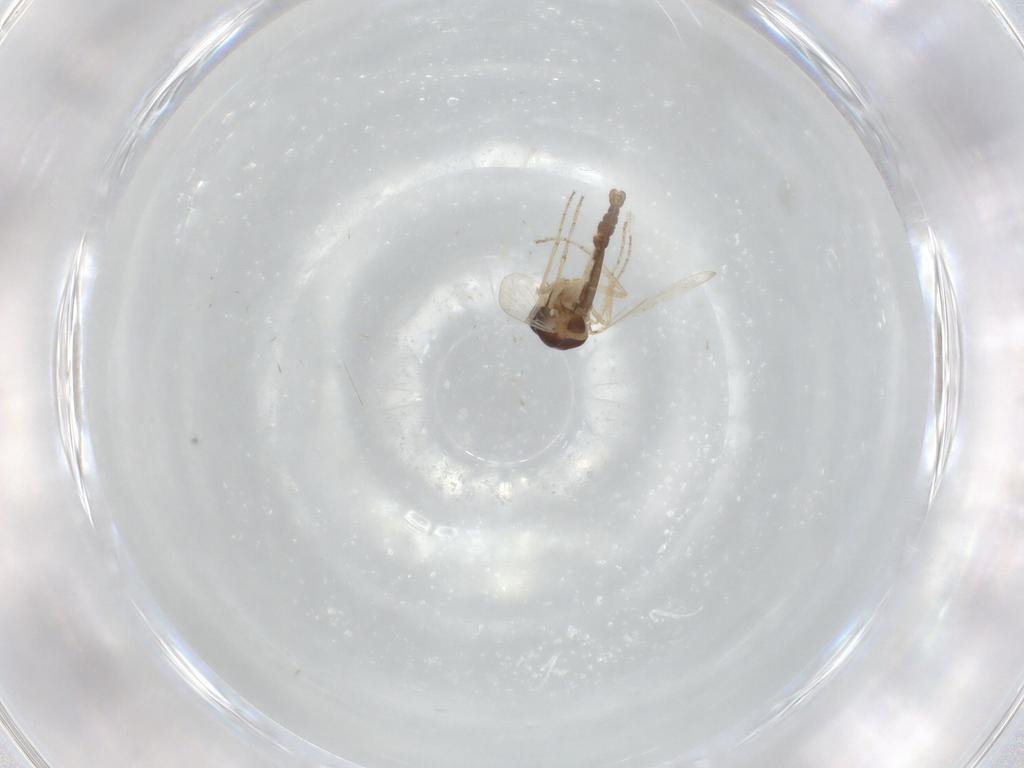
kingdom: Animalia
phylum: Arthropoda
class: Insecta
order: Diptera
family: Ceratopogonidae
